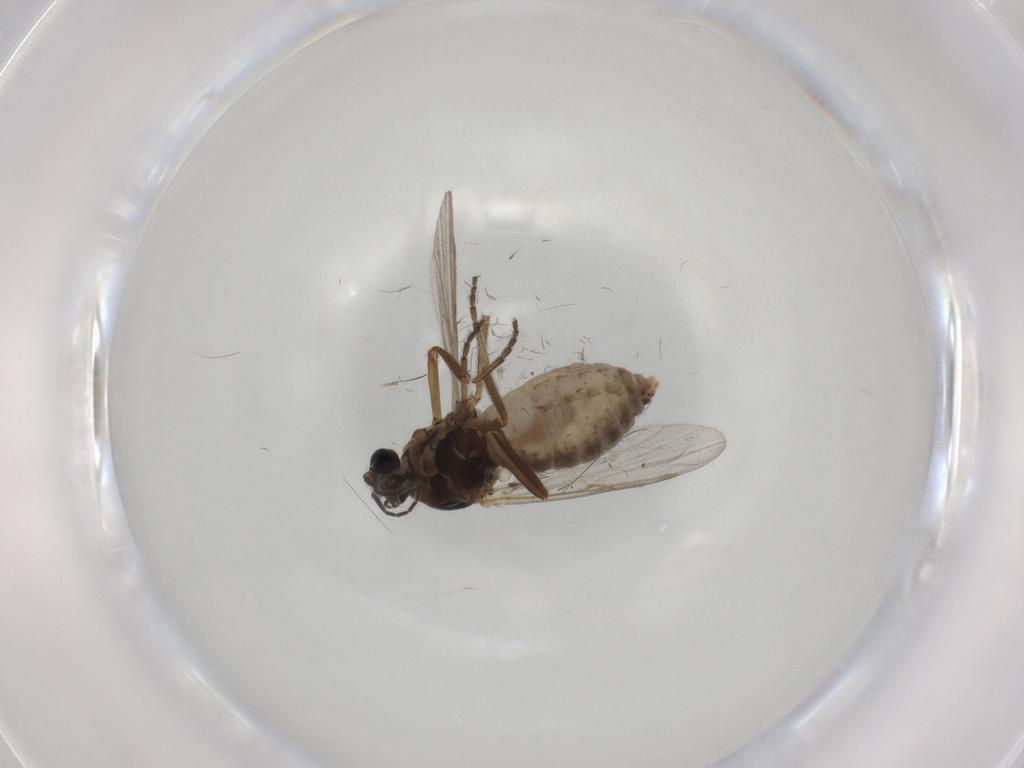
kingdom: Animalia
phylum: Arthropoda
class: Insecta
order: Diptera
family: Ceratopogonidae
